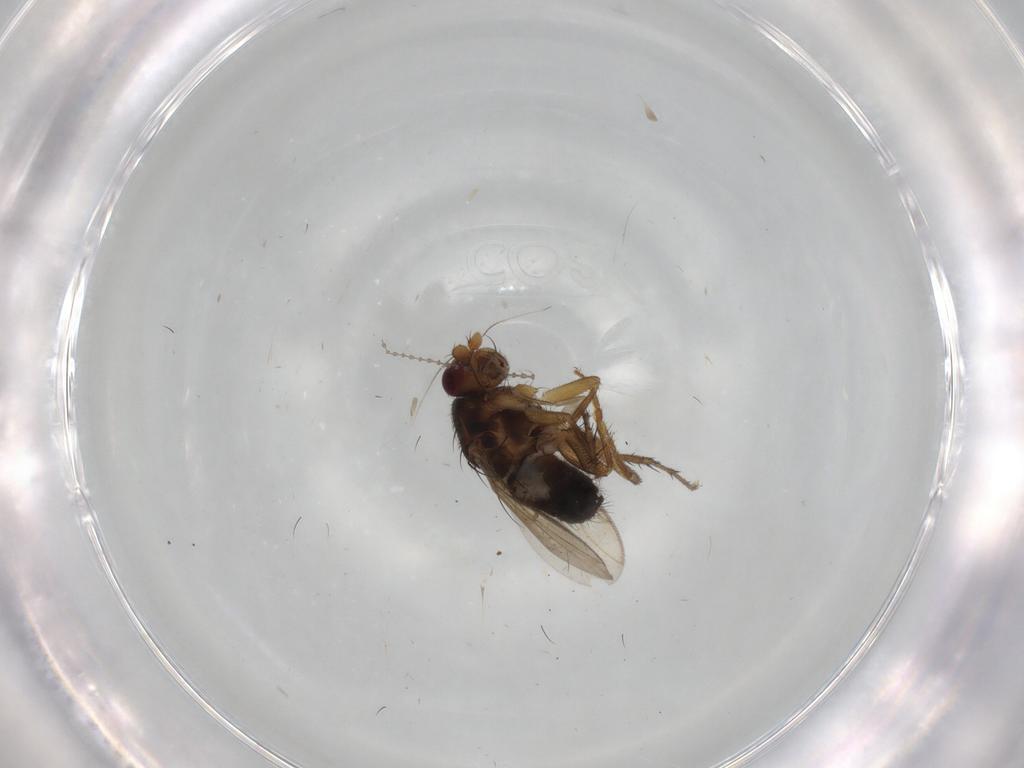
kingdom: Animalia
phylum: Arthropoda
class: Insecta
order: Diptera
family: Sphaeroceridae
